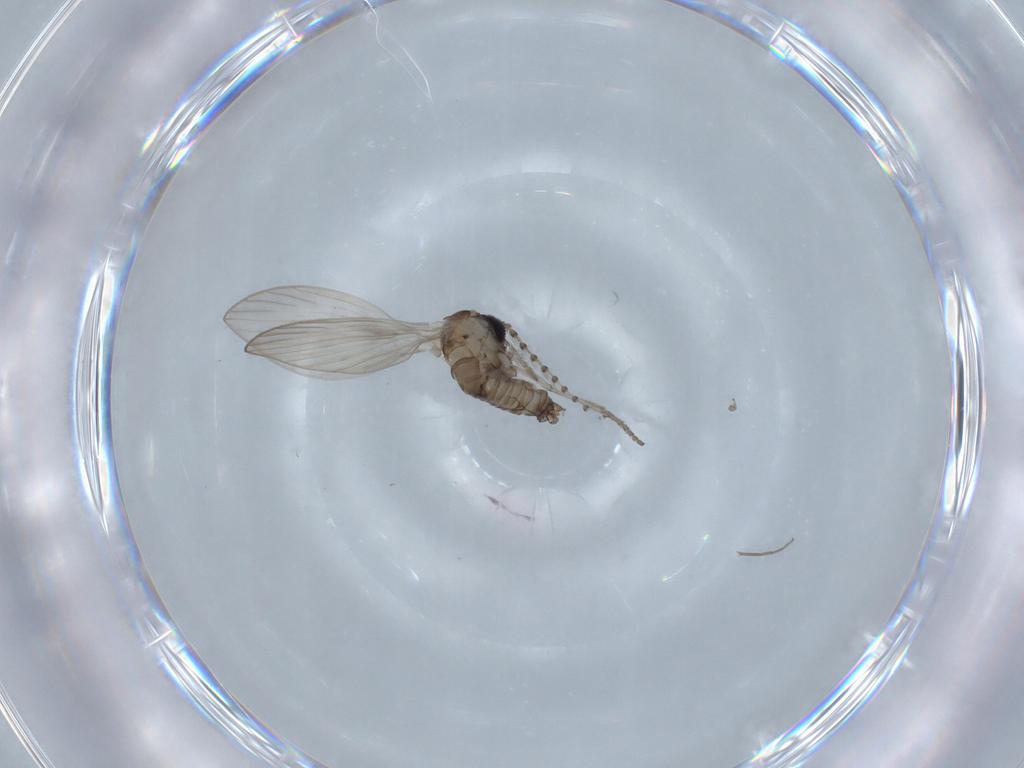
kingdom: Animalia
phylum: Arthropoda
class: Insecta
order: Diptera
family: Psychodidae
